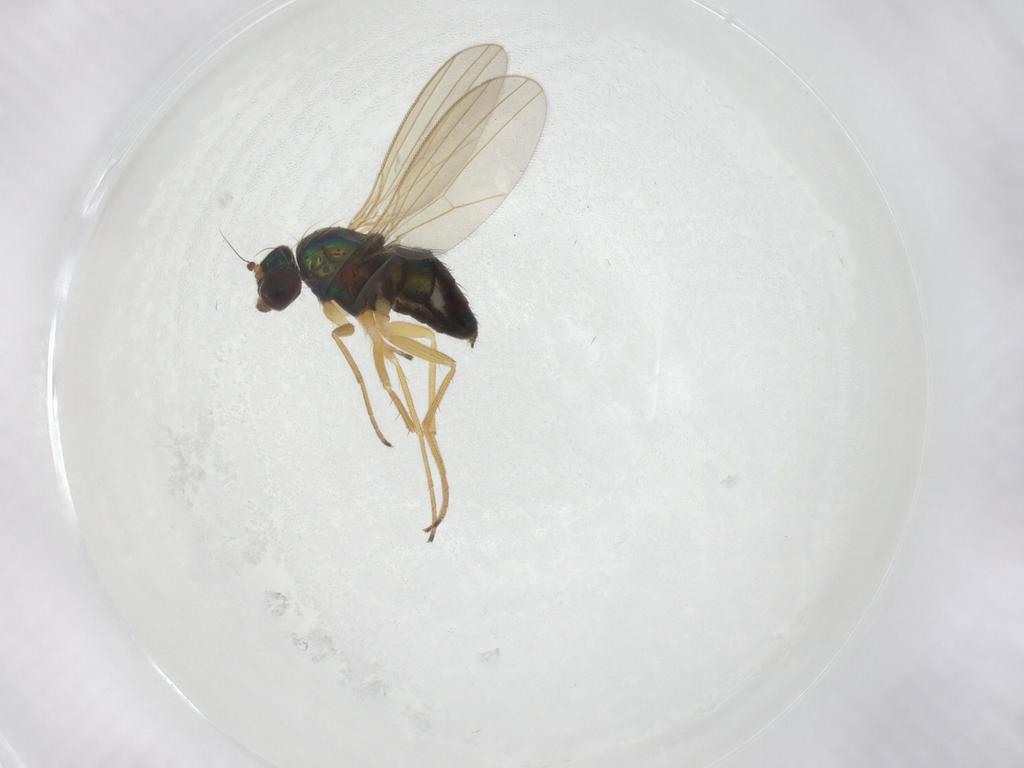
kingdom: Animalia
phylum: Arthropoda
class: Insecta
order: Diptera
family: Dolichopodidae
